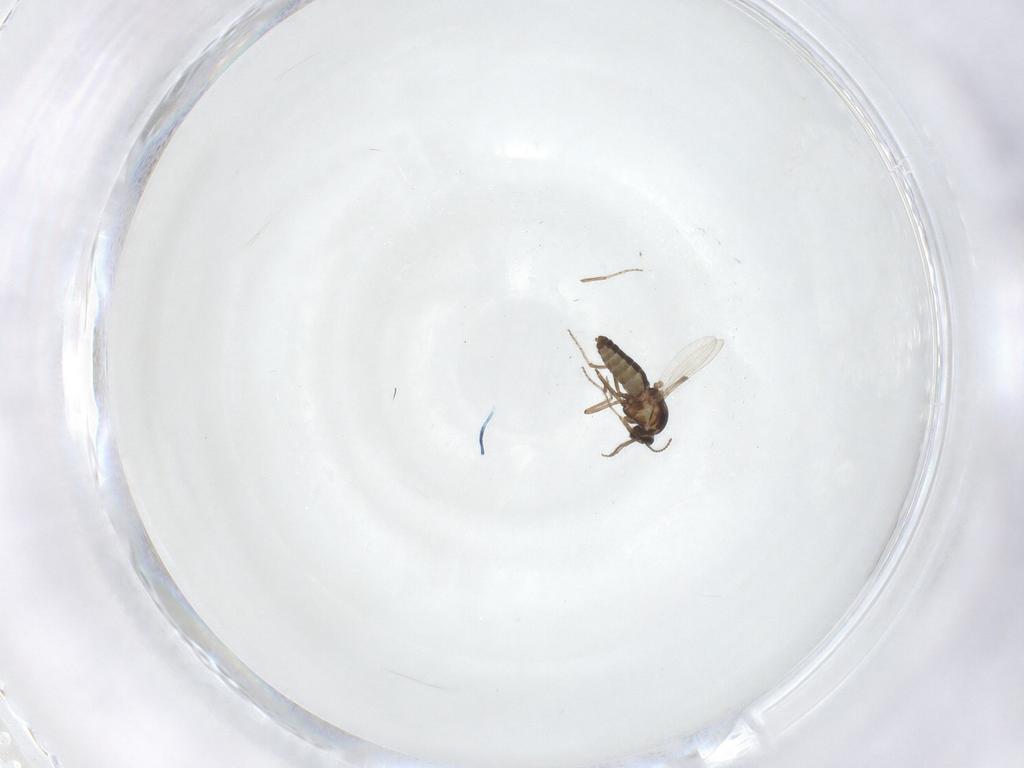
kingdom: Animalia
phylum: Arthropoda
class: Insecta
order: Diptera
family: Ceratopogonidae
